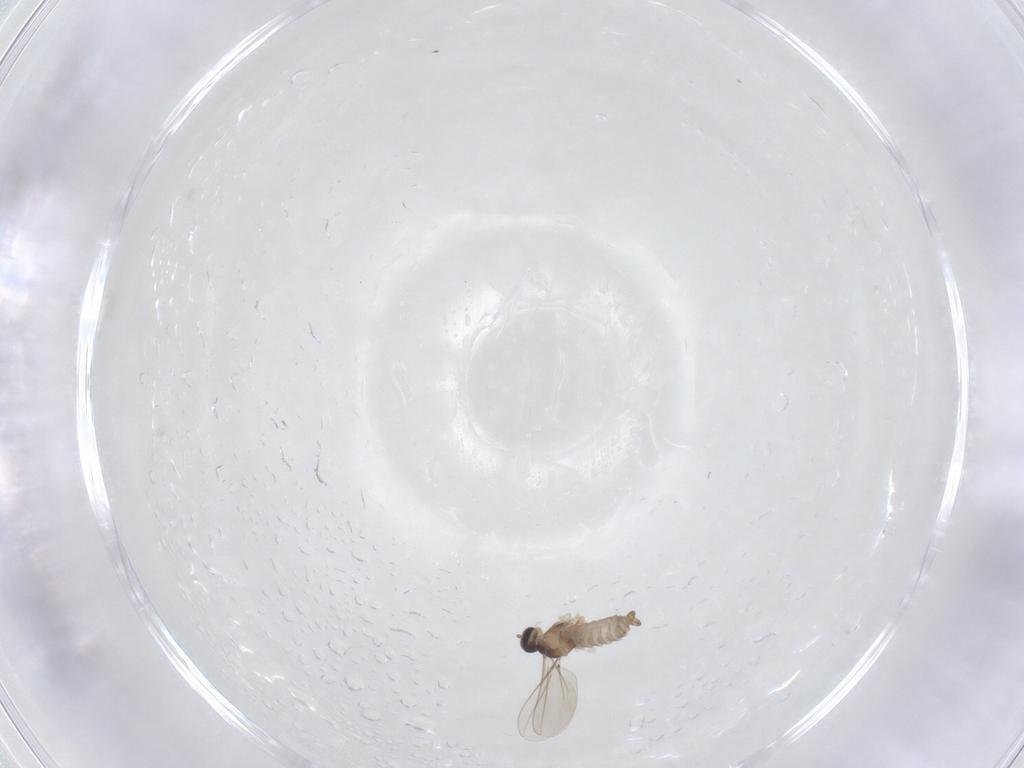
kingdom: Animalia
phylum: Arthropoda
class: Insecta
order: Diptera
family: Cecidomyiidae
